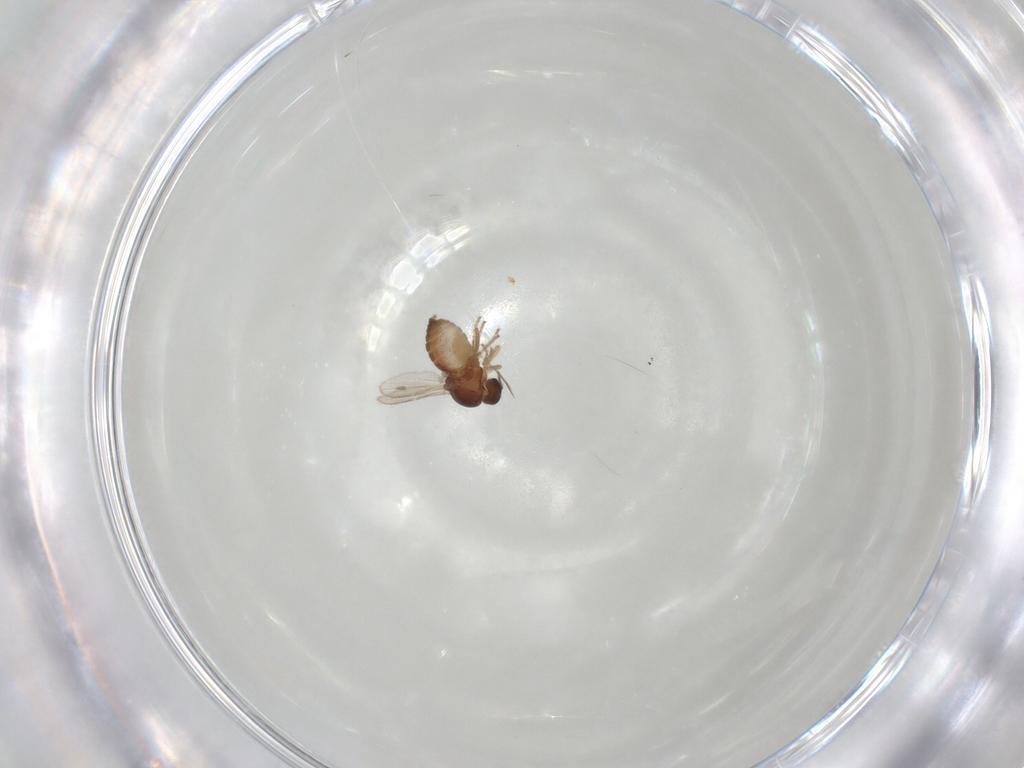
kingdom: Animalia
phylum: Arthropoda
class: Insecta
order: Diptera
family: Ceratopogonidae
